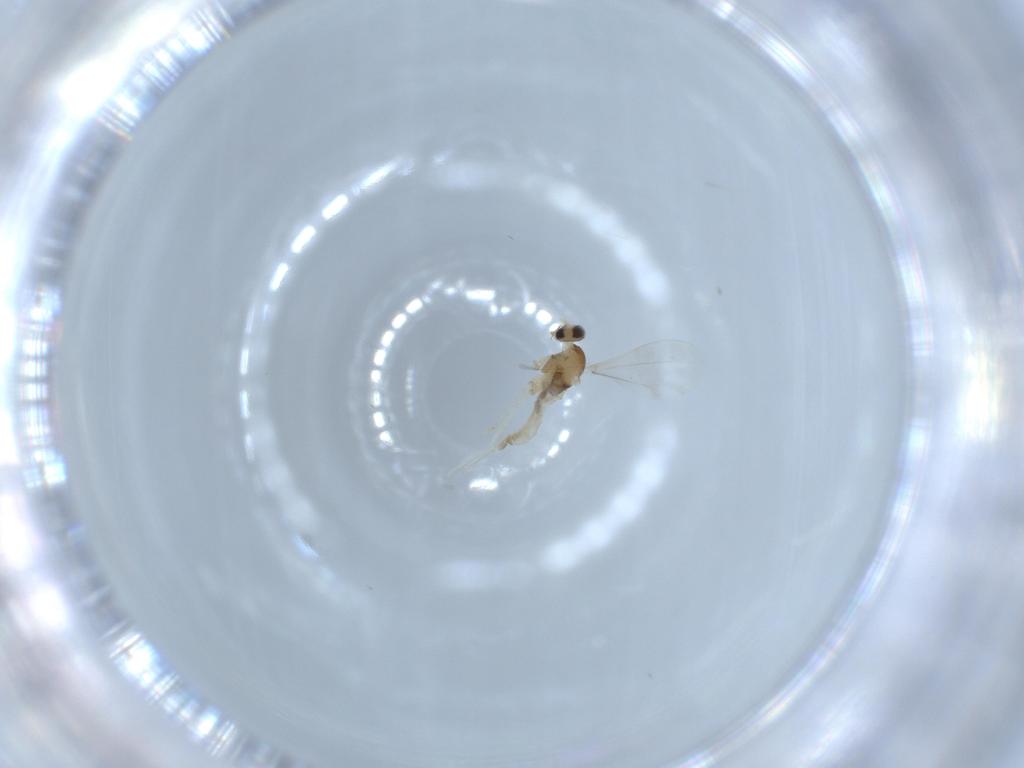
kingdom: Animalia
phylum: Arthropoda
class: Insecta
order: Diptera
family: Cecidomyiidae
